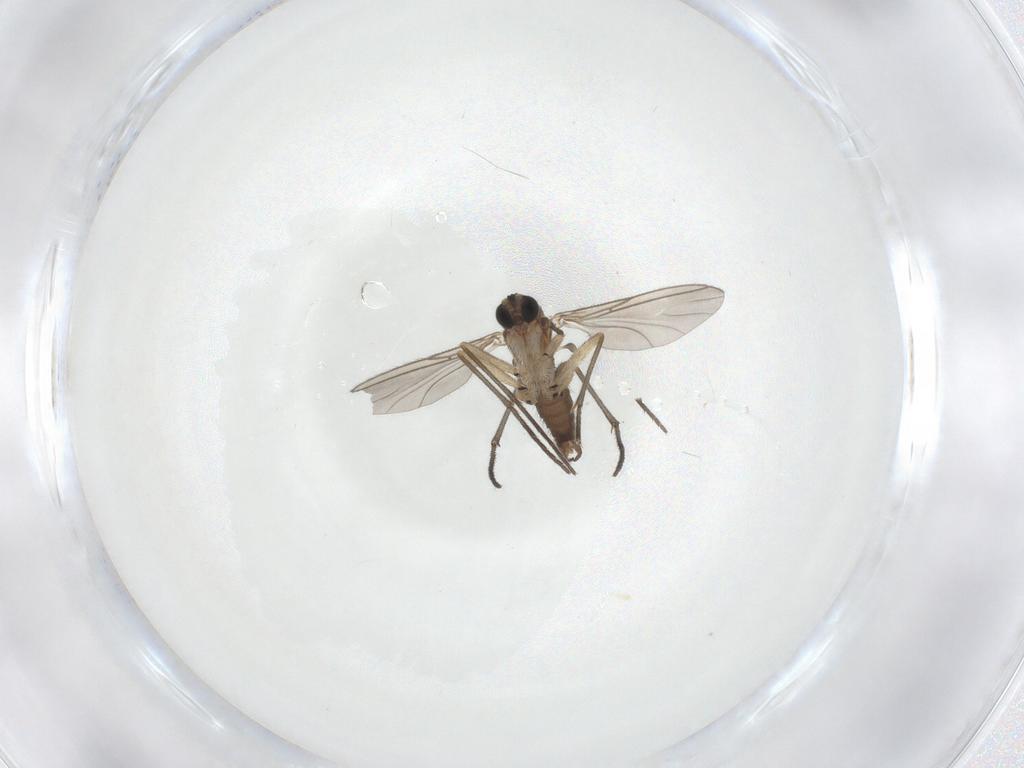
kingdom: Animalia
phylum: Arthropoda
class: Insecta
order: Diptera
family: Sciaridae
